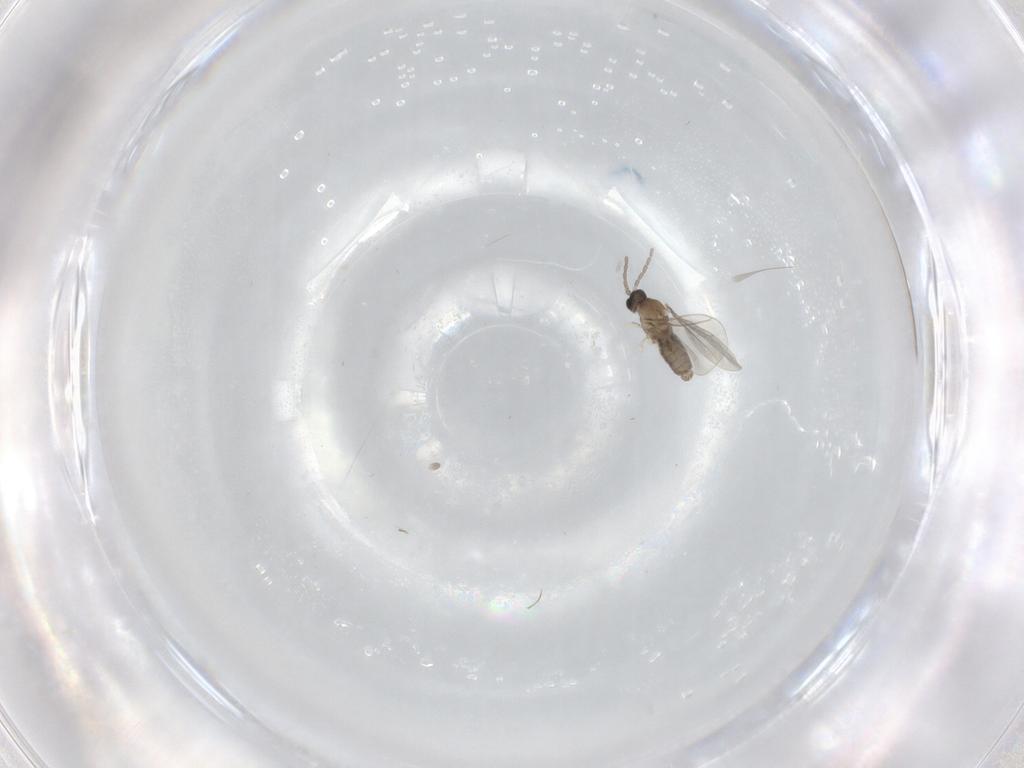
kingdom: Animalia
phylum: Arthropoda
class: Insecta
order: Diptera
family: Cecidomyiidae
